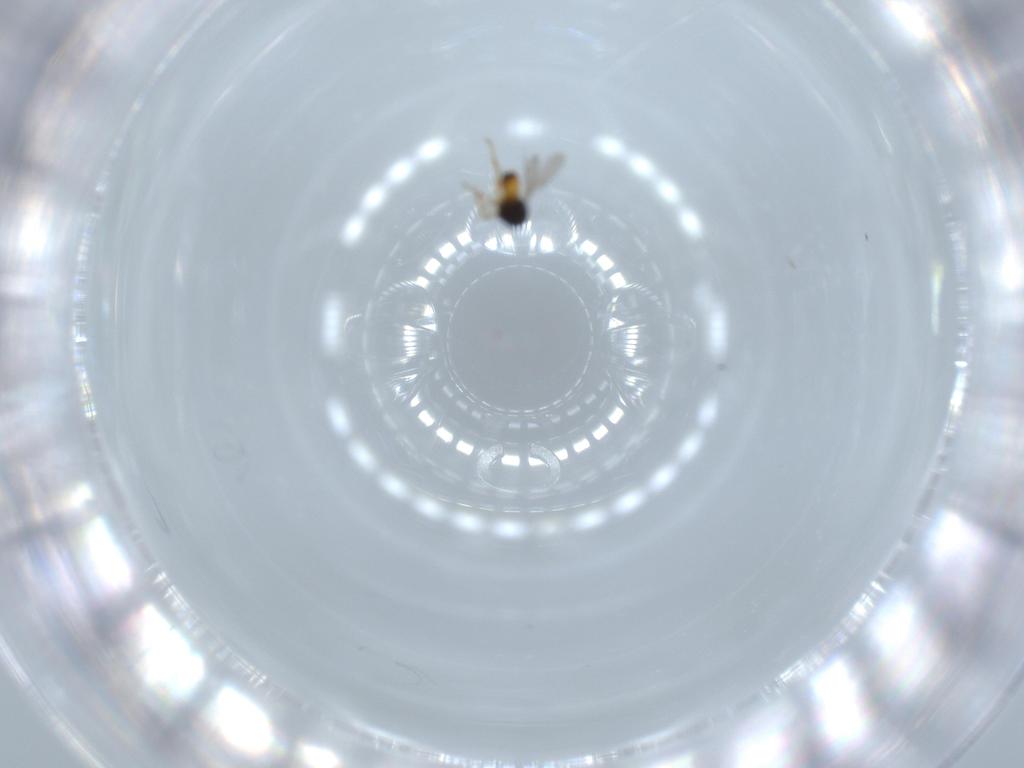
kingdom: Animalia
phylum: Arthropoda
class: Insecta
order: Hymenoptera
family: Scelionidae
